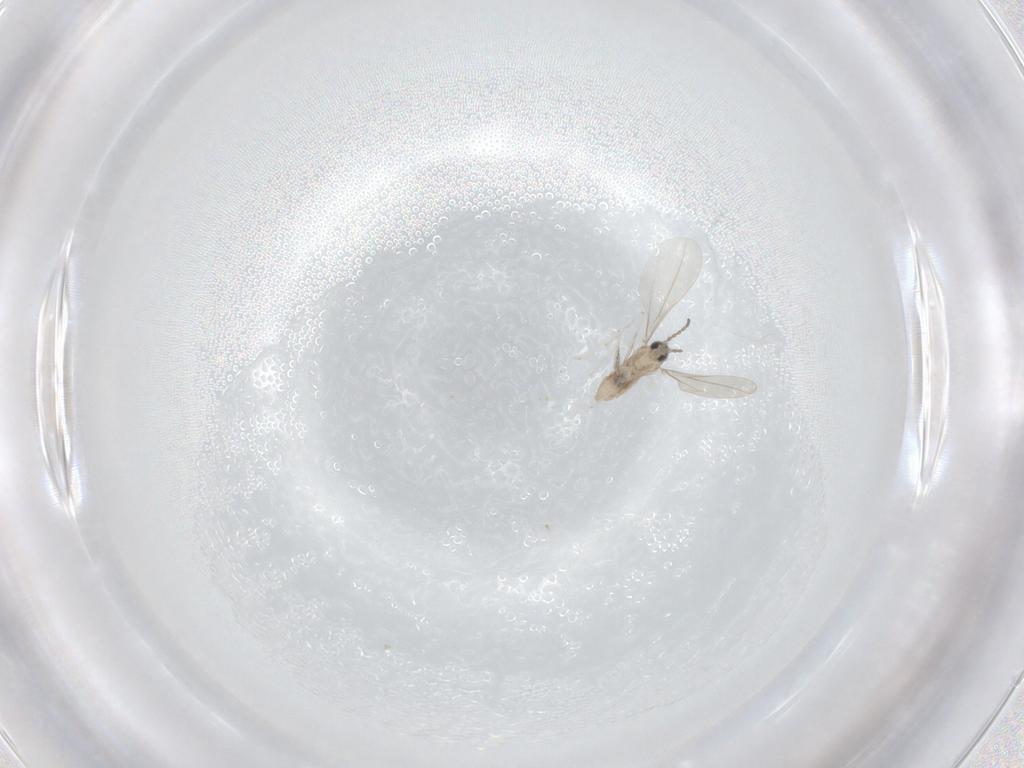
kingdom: Animalia
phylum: Arthropoda
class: Insecta
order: Diptera
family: Cecidomyiidae
